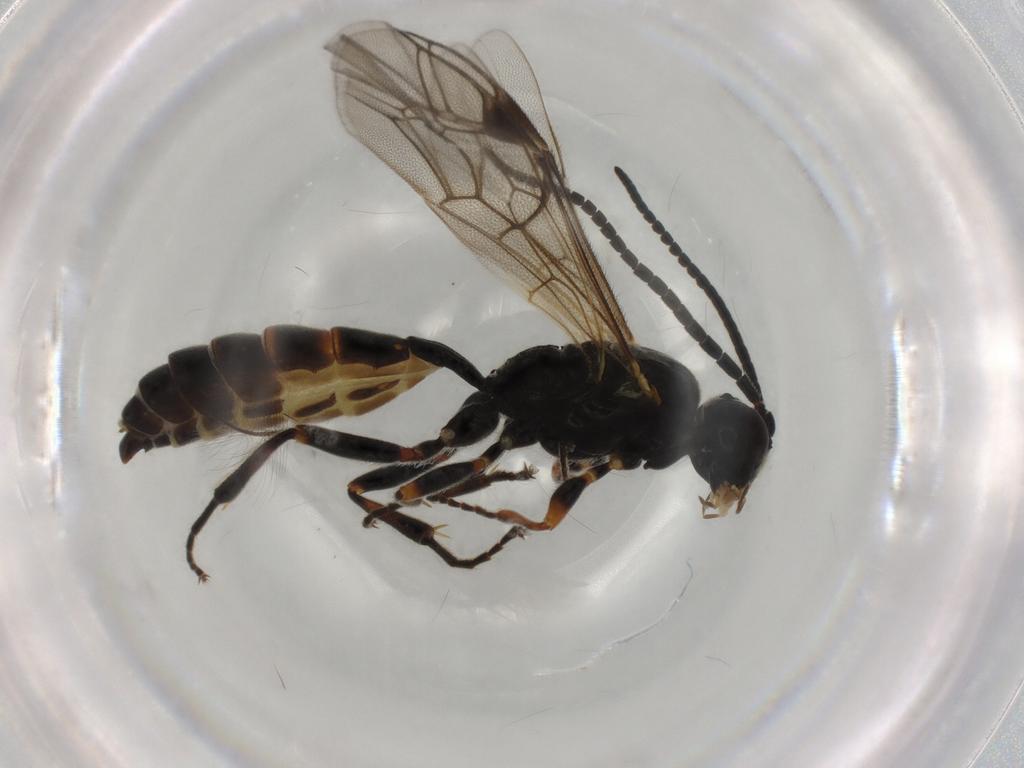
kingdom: Animalia
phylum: Arthropoda
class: Insecta
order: Hymenoptera
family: Ichneumonidae
